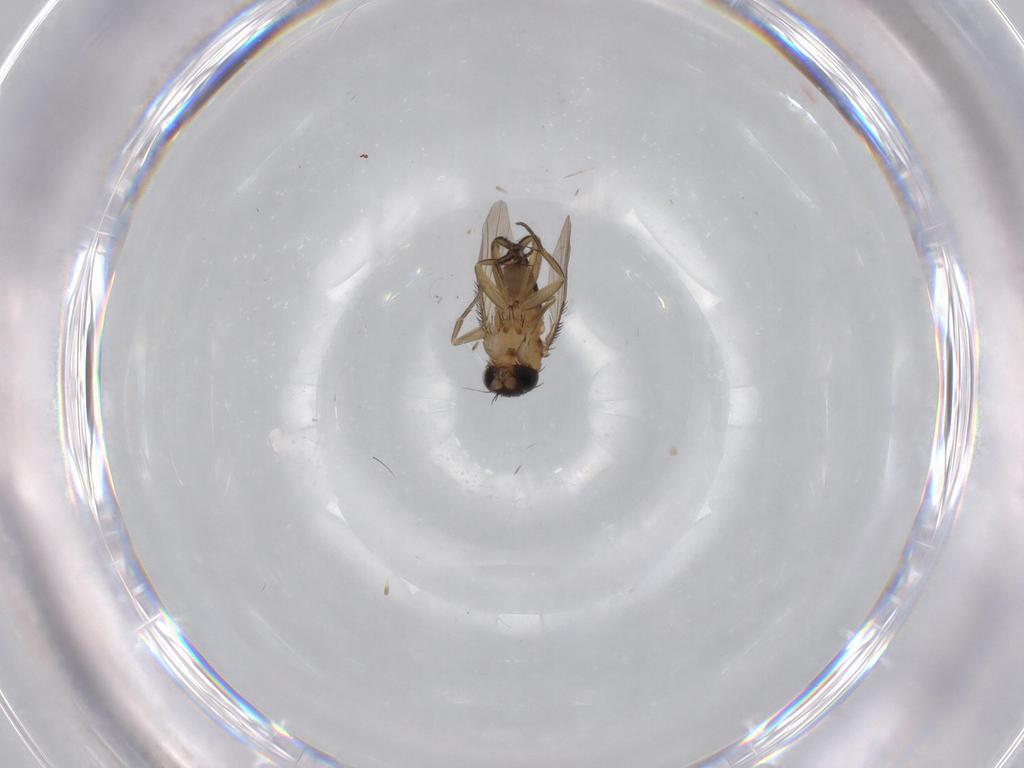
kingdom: Animalia
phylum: Arthropoda
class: Insecta
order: Diptera
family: Phoridae
